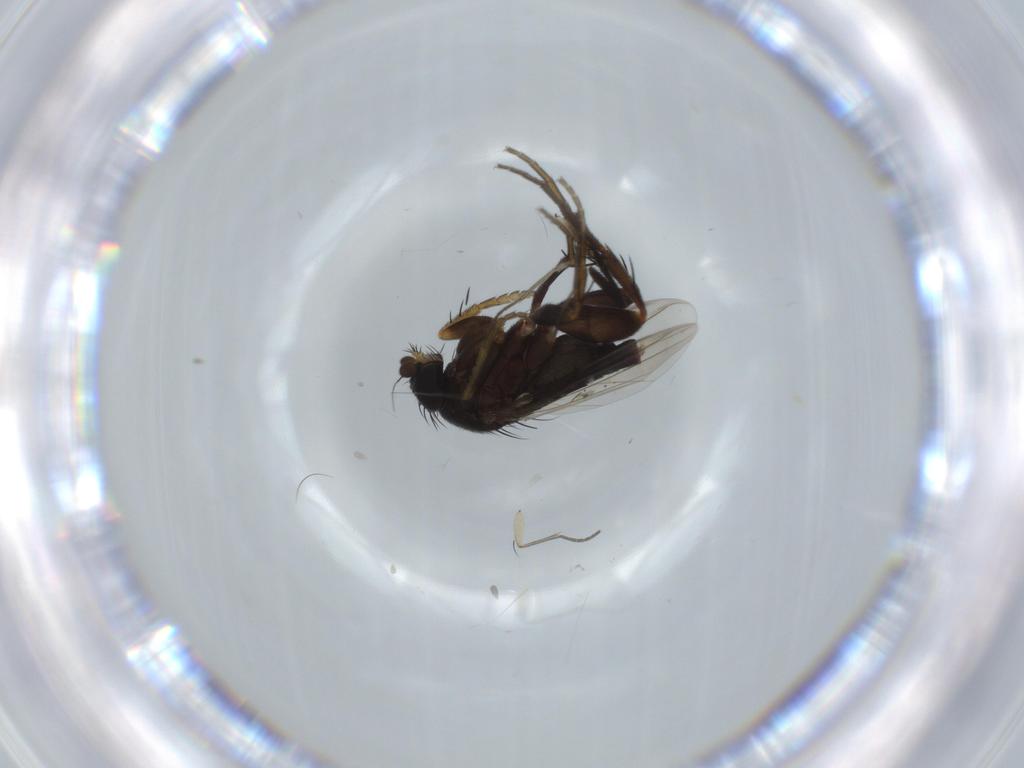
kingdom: Animalia
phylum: Arthropoda
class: Insecta
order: Diptera
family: Phoridae
